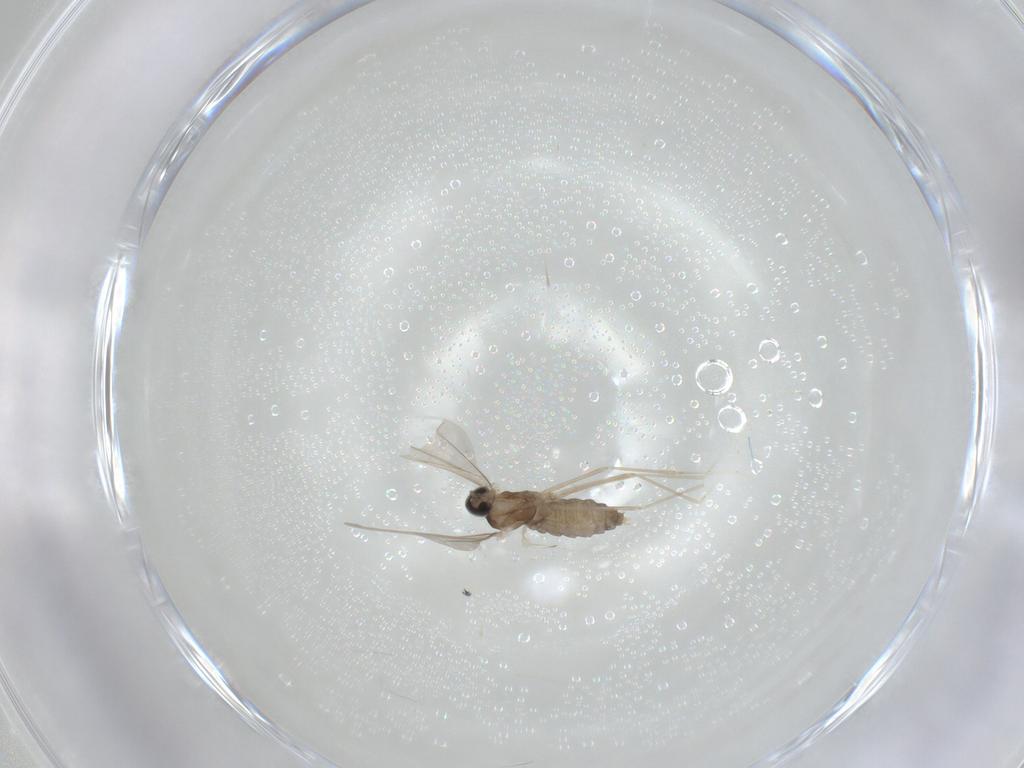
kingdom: Animalia
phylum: Arthropoda
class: Insecta
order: Diptera
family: Cecidomyiidae
